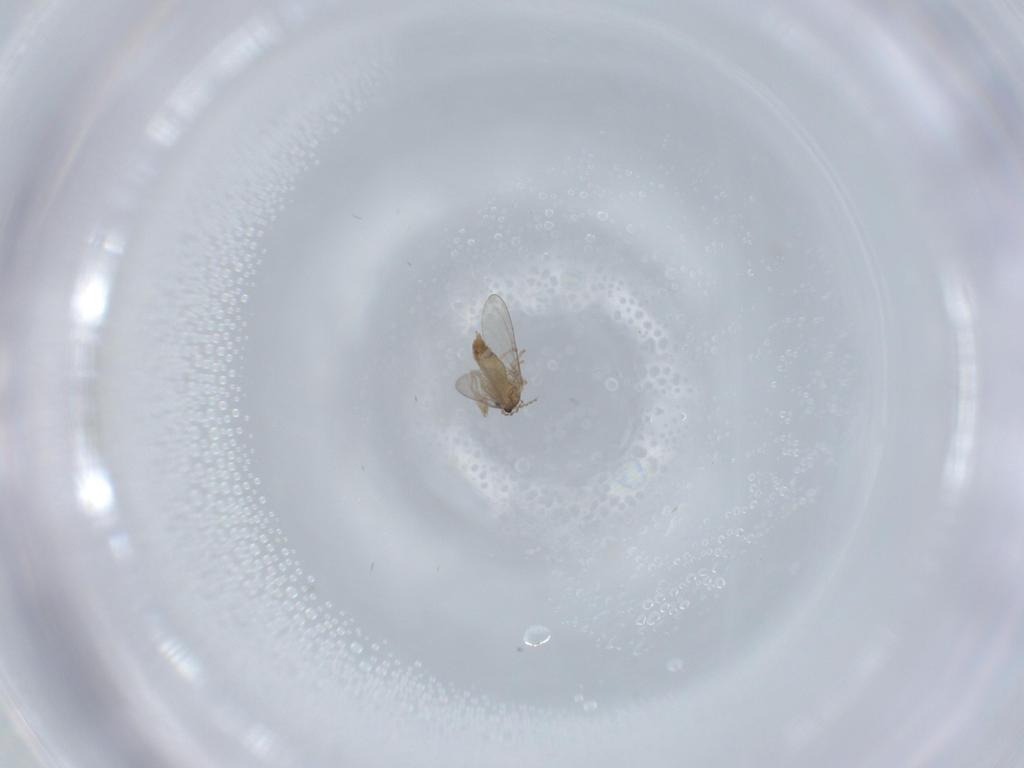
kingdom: Animalia
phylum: Arthropoda
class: Insecta
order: Diptera
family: Cecidomyiidae
